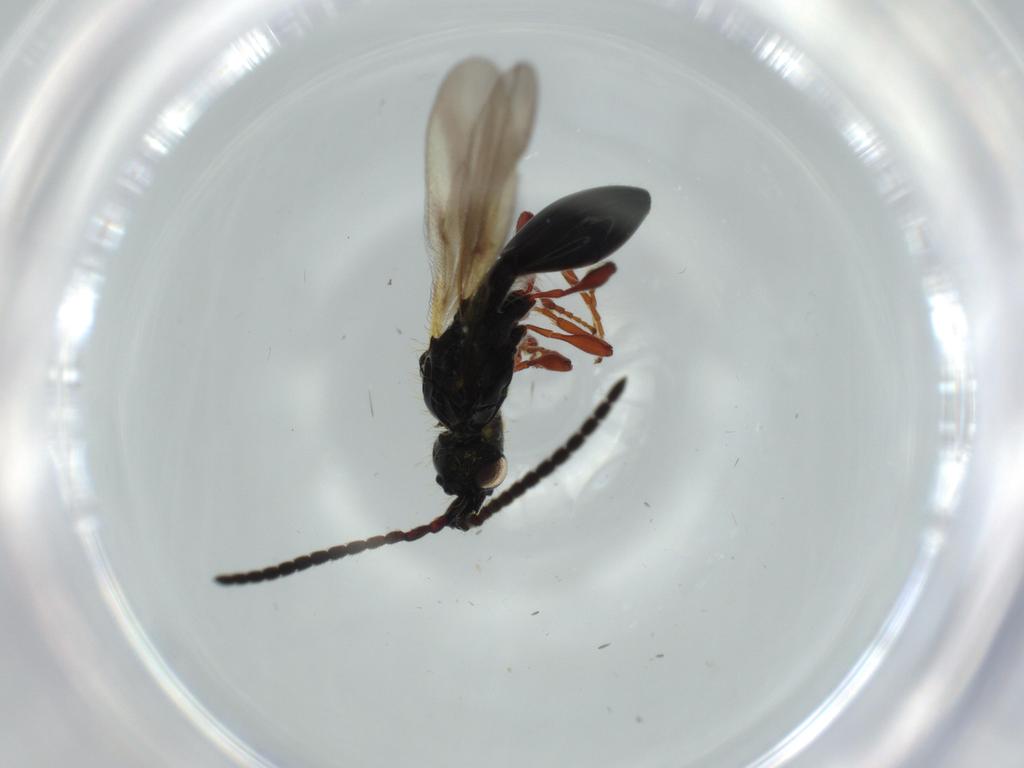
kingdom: Animalia
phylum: Arthropoda
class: Insecta
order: Hymenoptera
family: Diapriidae
